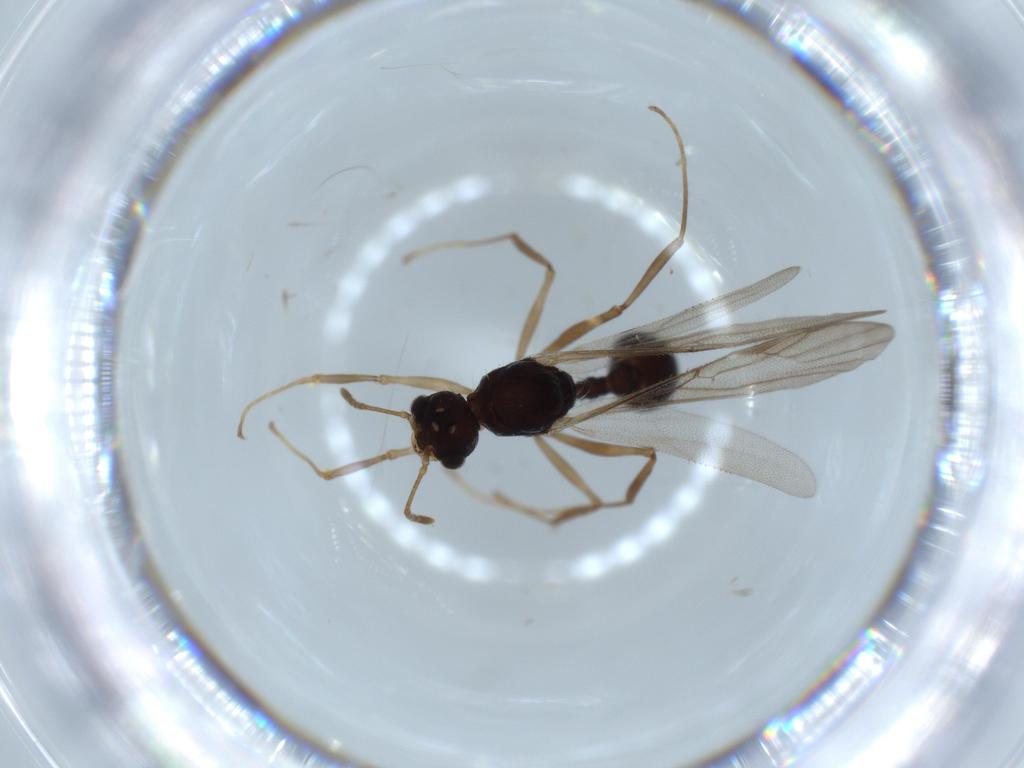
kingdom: Animalia
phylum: Arthropoda
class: Insecta
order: Hymenoptera
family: Formicidae
